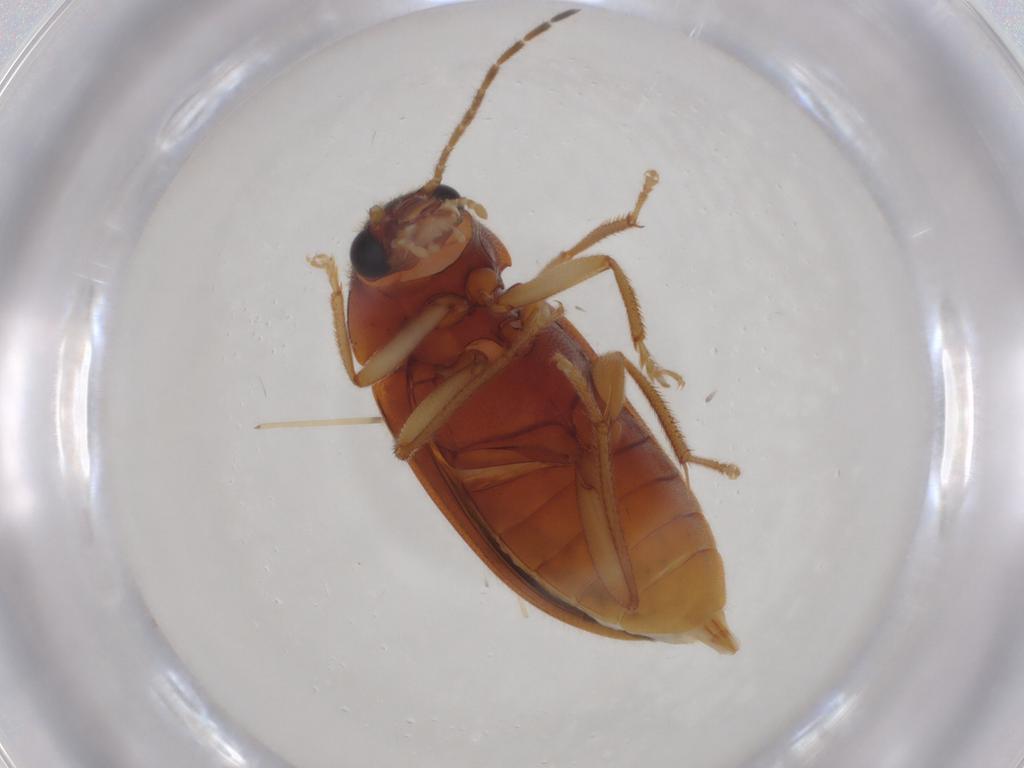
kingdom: Animalia
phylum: Arthropoda
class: Insecta
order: Coleoptera
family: Ptilodactylidae
